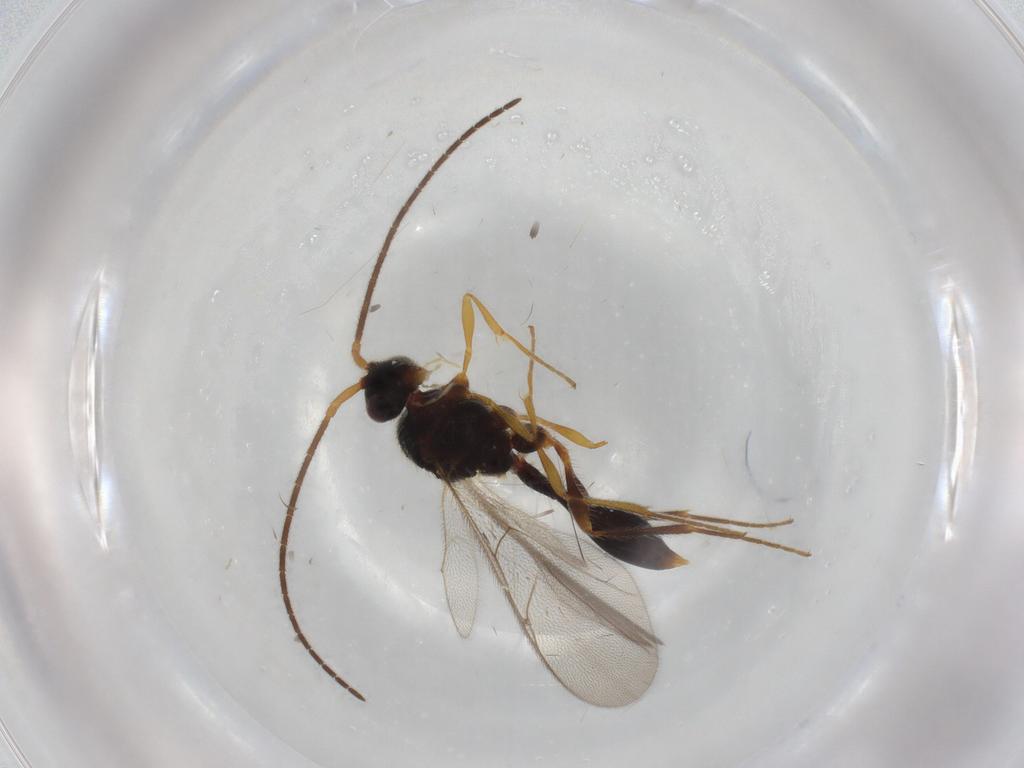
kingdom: Animalia
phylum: Arthropoda
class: Insecta
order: Hymenoptera
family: Diapriidae
